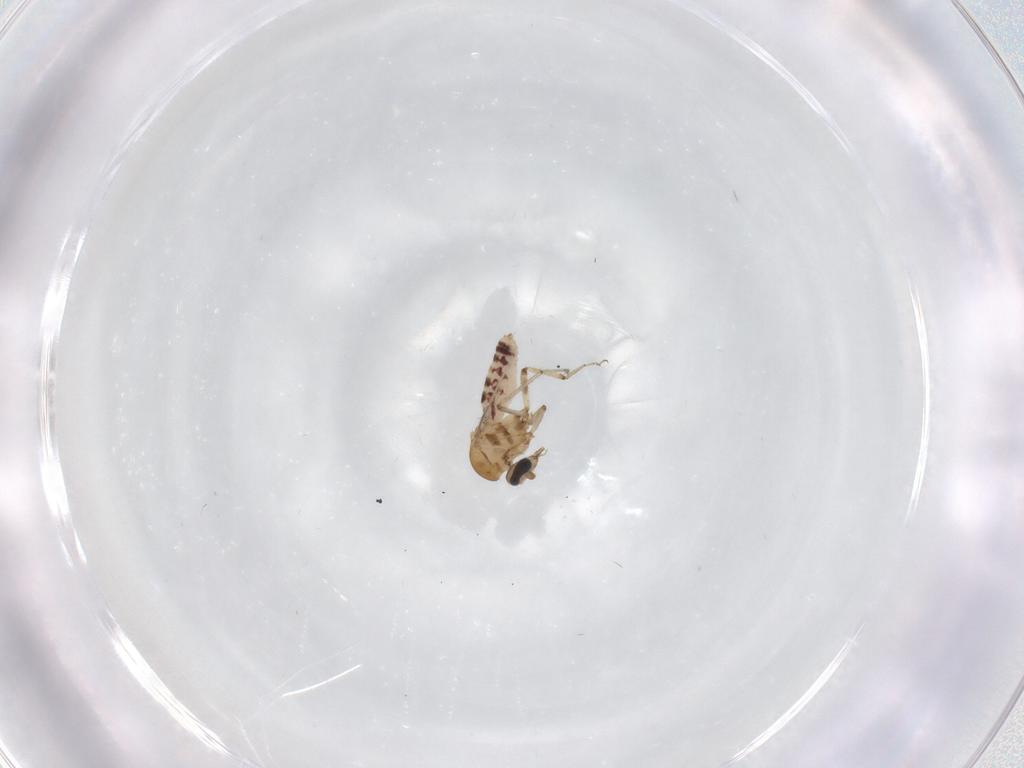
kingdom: Animalia
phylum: Arthropoda
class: Insecta
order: Diptera
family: Ceratopogonidae
